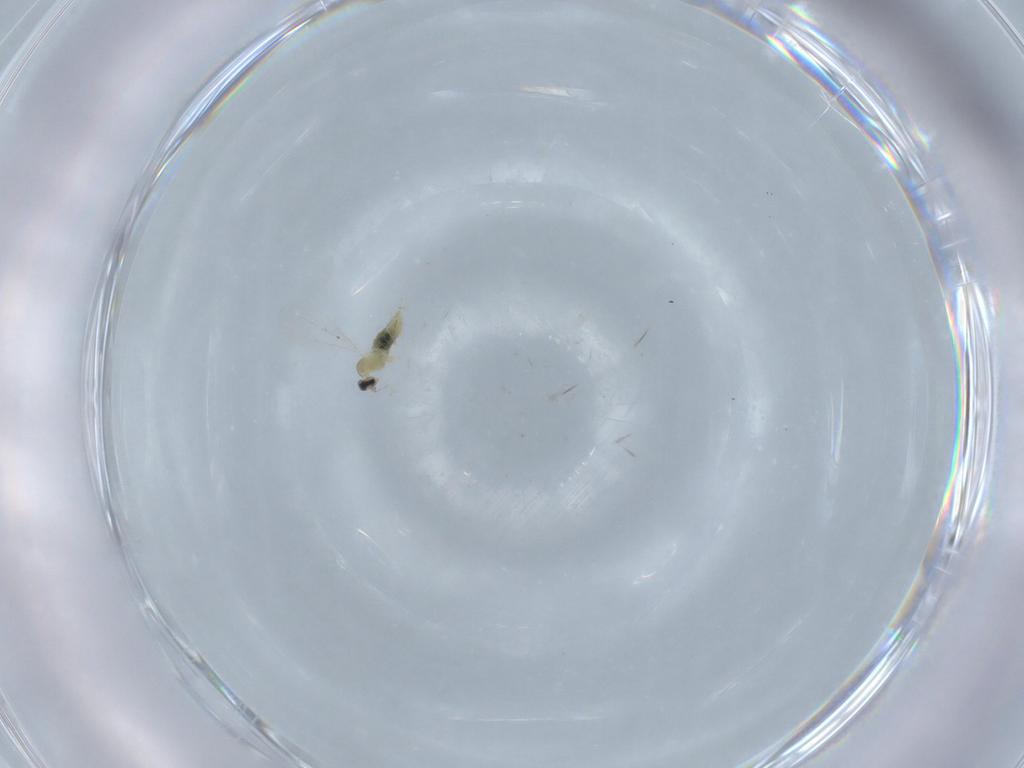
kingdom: Animalia
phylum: Arthropoda
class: Insecta
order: Diptera
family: Cecidomyiidae
